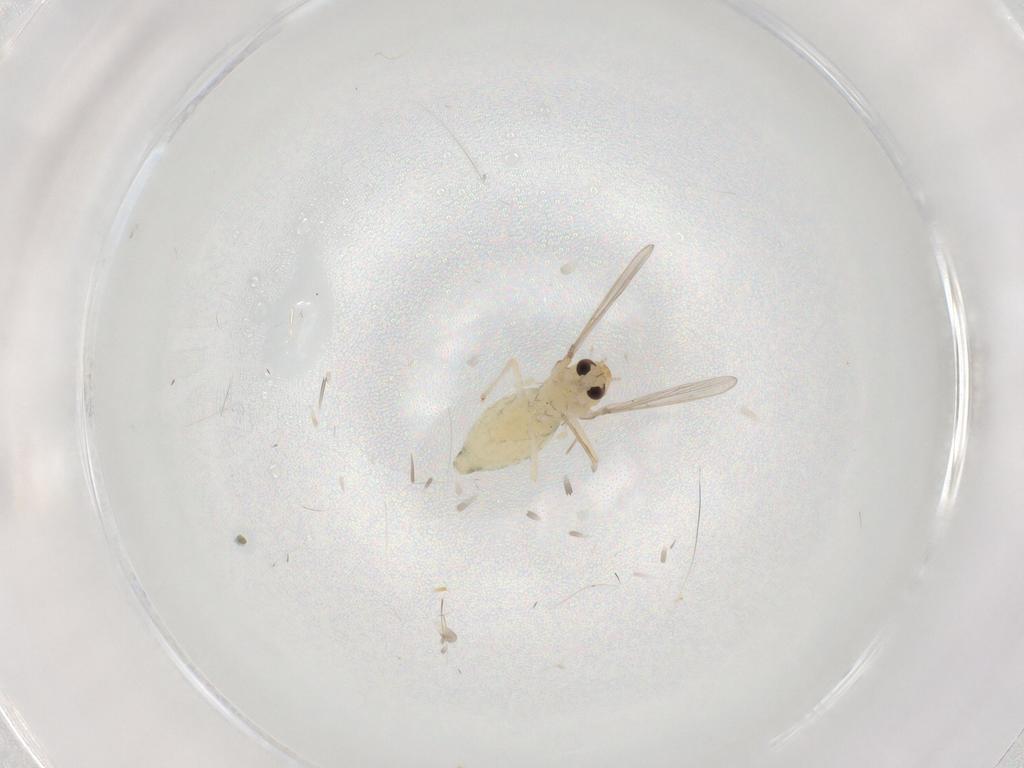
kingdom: Animalia
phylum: Arthropoda
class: Insecta
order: Diptera
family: Chironomidae
